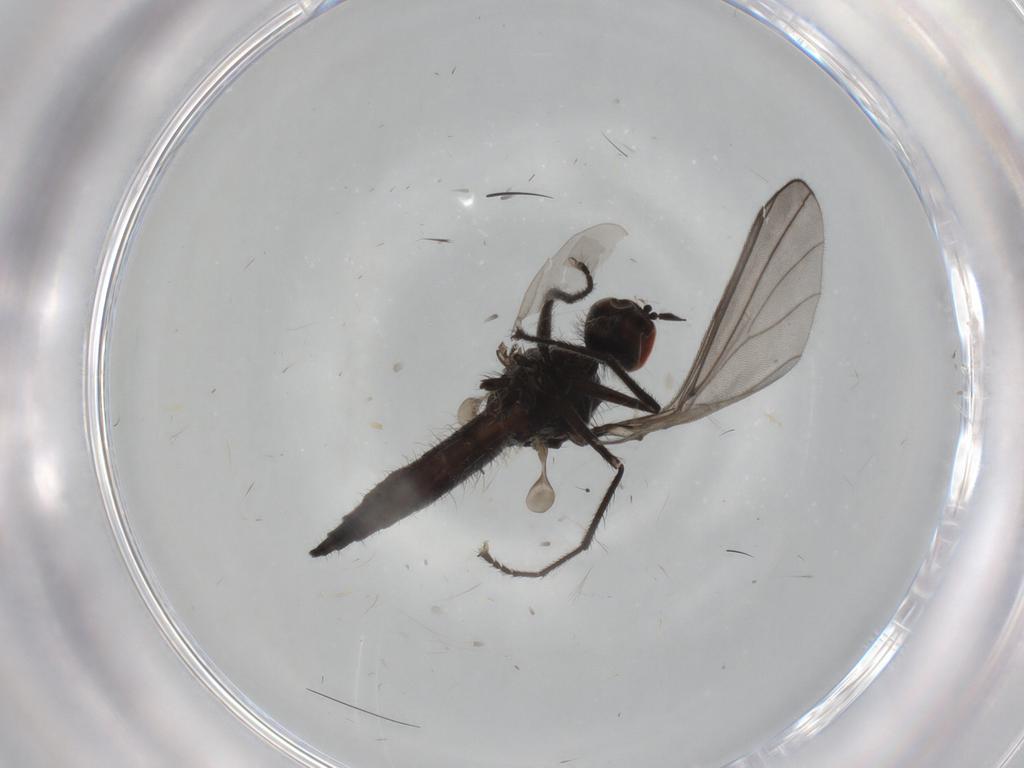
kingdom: Animalia
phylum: Arthropoda
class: Insecta
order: Diptera
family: Hybotidae
